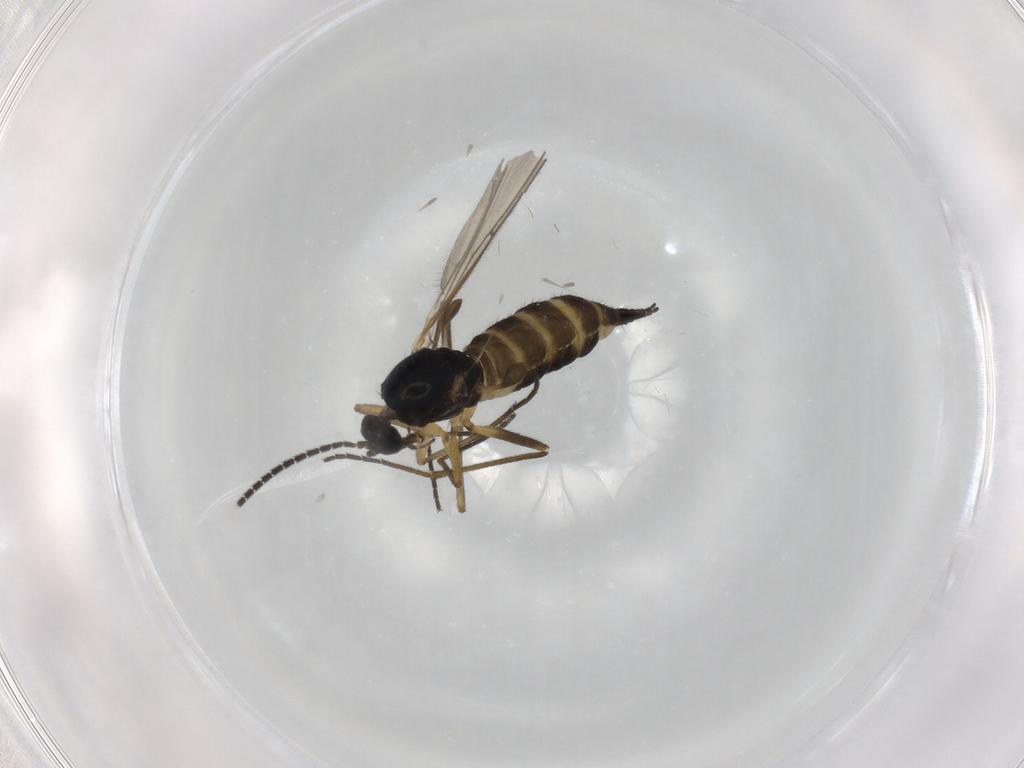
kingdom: Animalia
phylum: Arthropoda
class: Insecta
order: Diptera
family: Sciaridae
